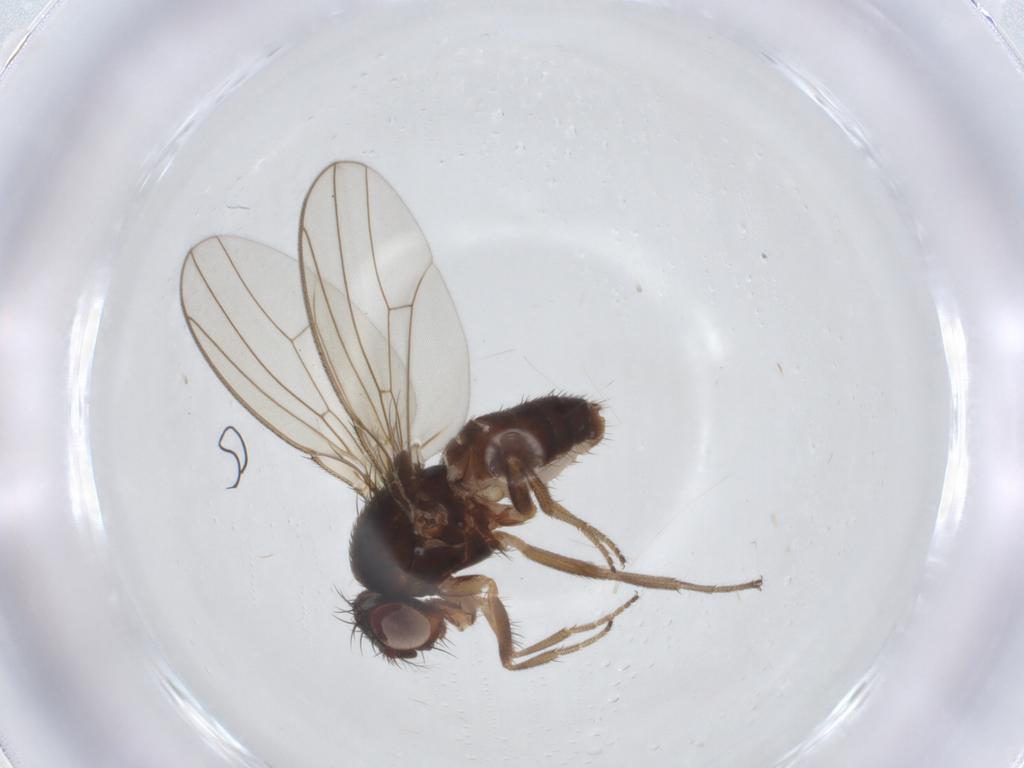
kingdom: Animalia
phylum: Arthropoda
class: Insecta
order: Diptera
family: Drosophilidae
